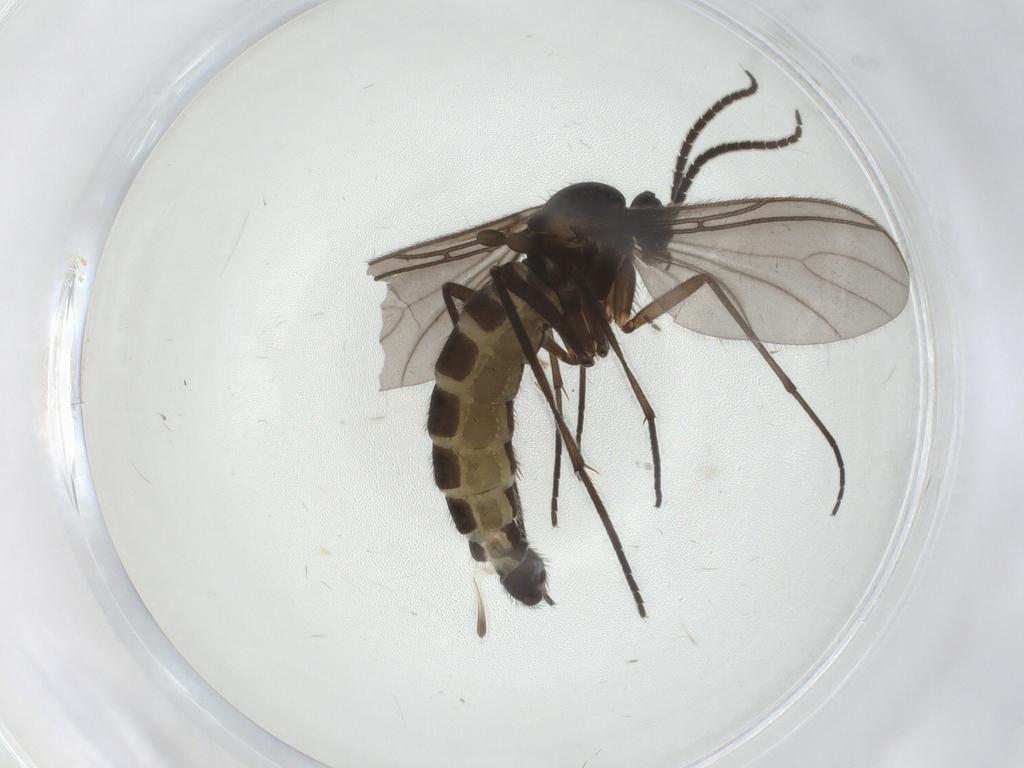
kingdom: Animalia
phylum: Arthropoda
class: Insecta
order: Diptera
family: Sciaridae
